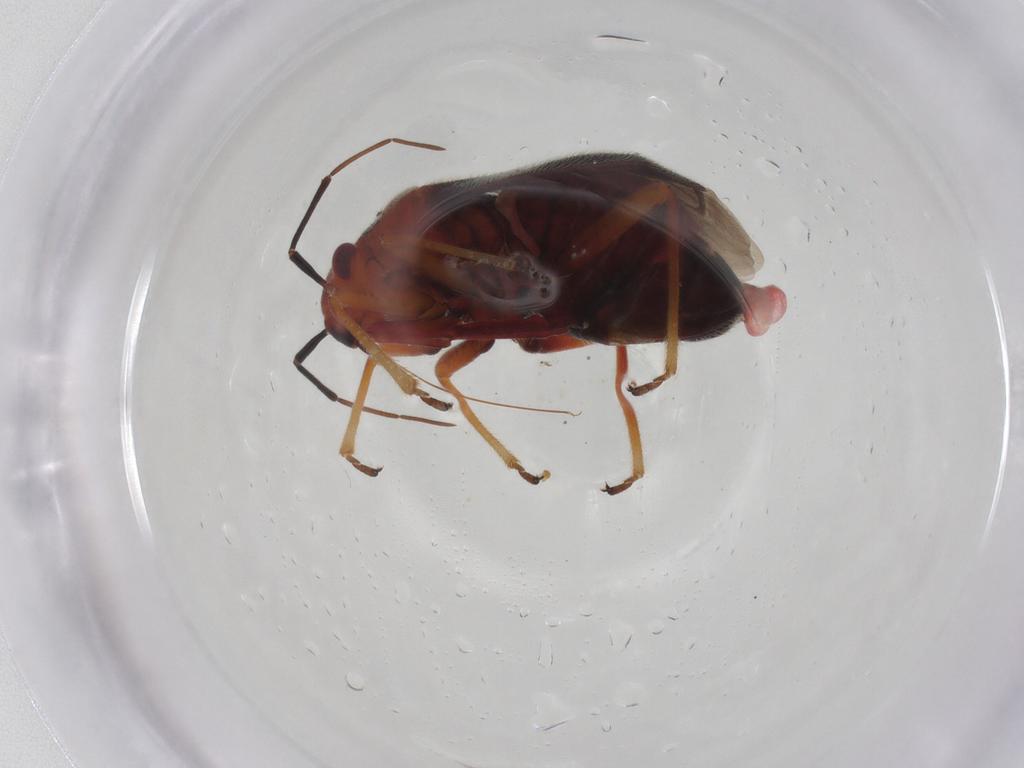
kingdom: Animalia
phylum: Arthropoda
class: Insecta
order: Hemiptera
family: Miridae
